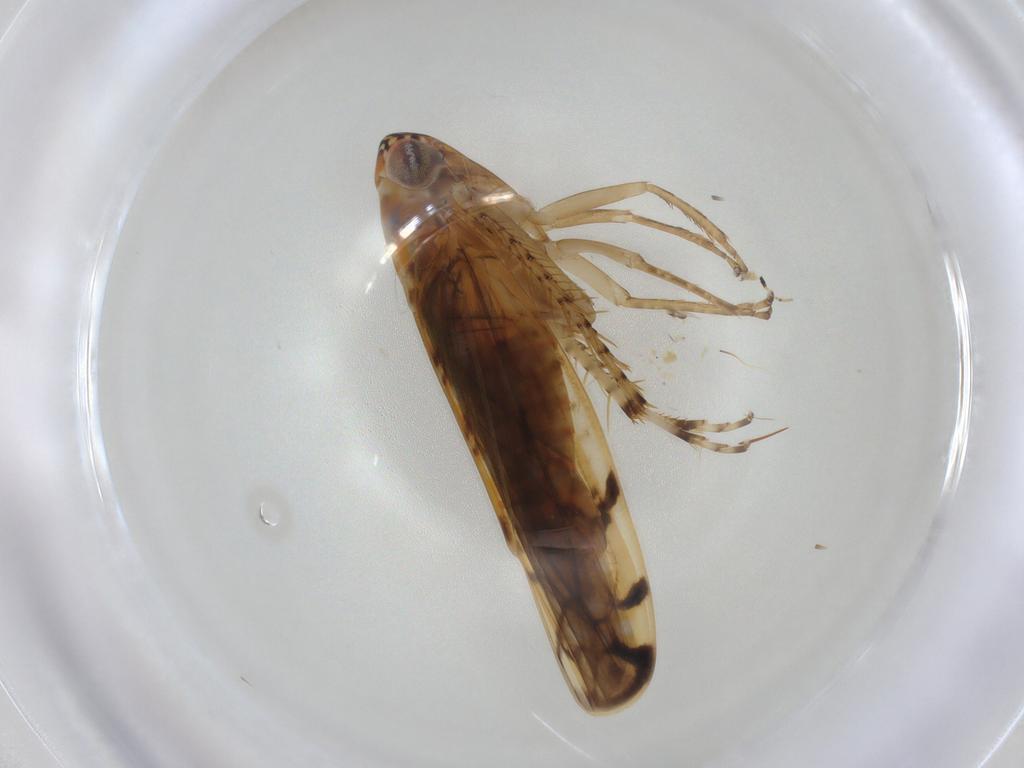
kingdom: Animalia
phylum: Arthropoda
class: Insecta
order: Hemiptera
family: Cicadellidae
